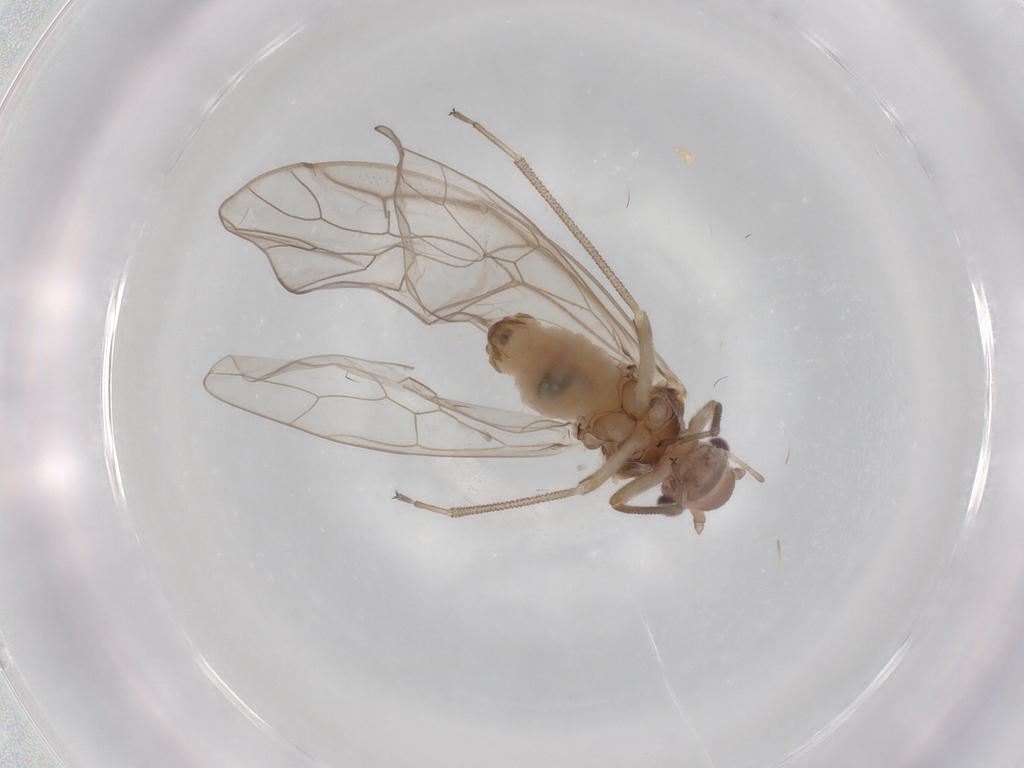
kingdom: Animalia
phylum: Arthropoda
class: Insecta
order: Psocodea
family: Stenopsocidae
